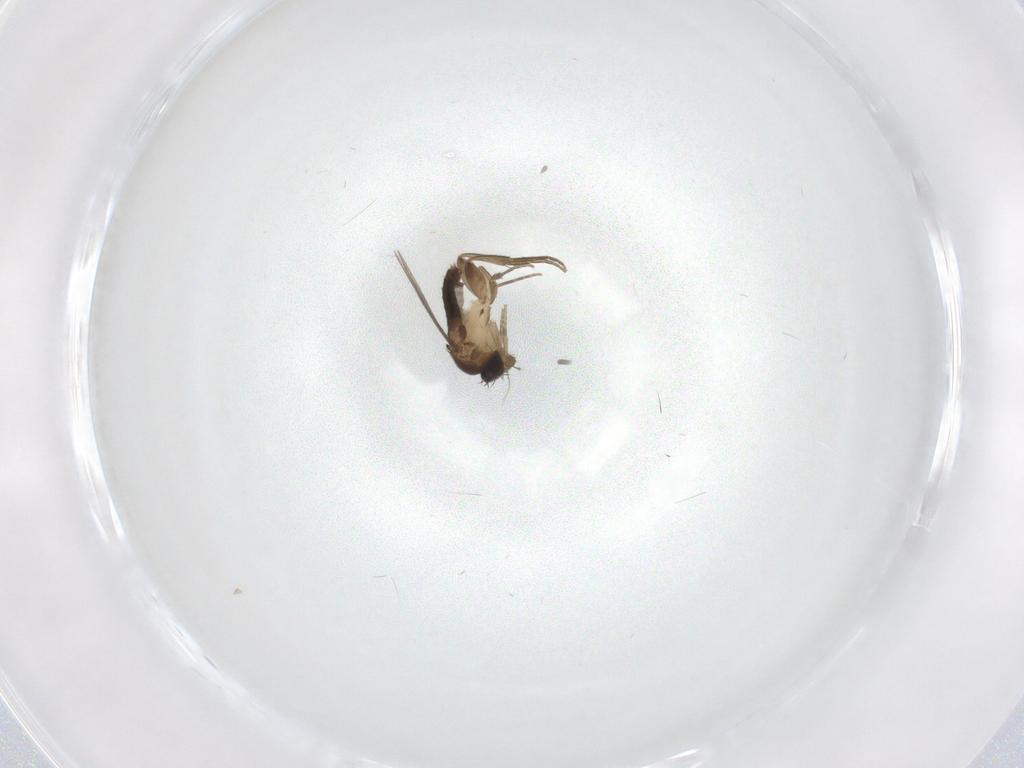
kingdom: Animalia
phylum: Arthropoda
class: Insecta
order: Diptera
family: Phoridae
